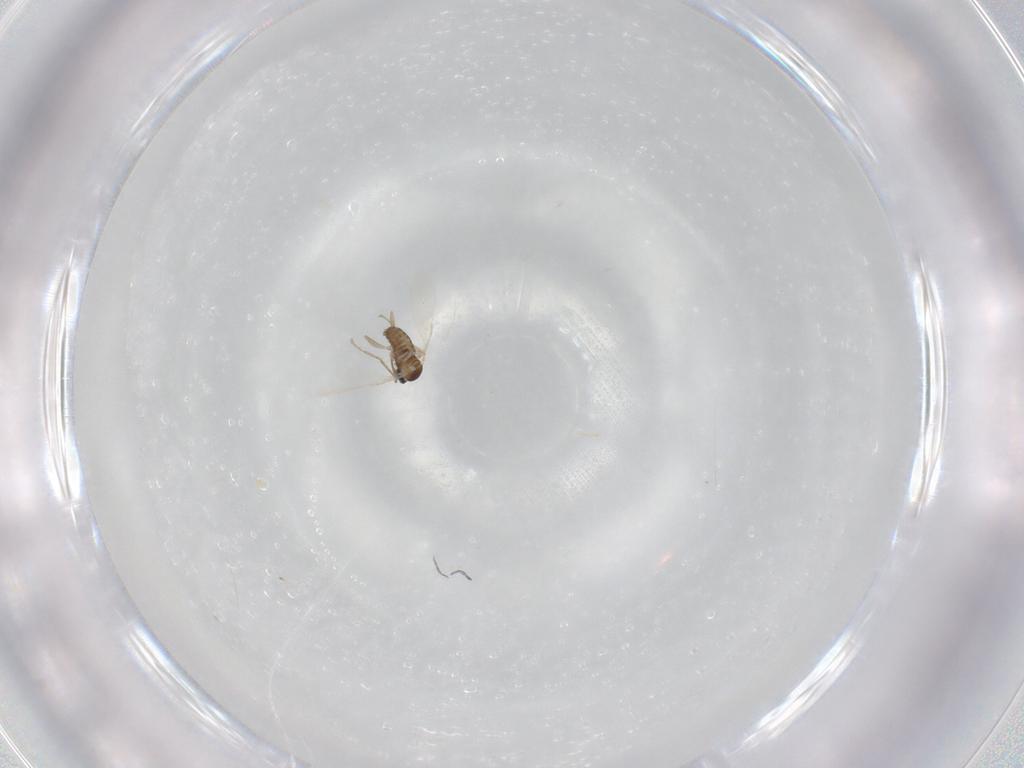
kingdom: Animalia
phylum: Arthropoda
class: Insecta
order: Diptera
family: Cecidomyiidae
